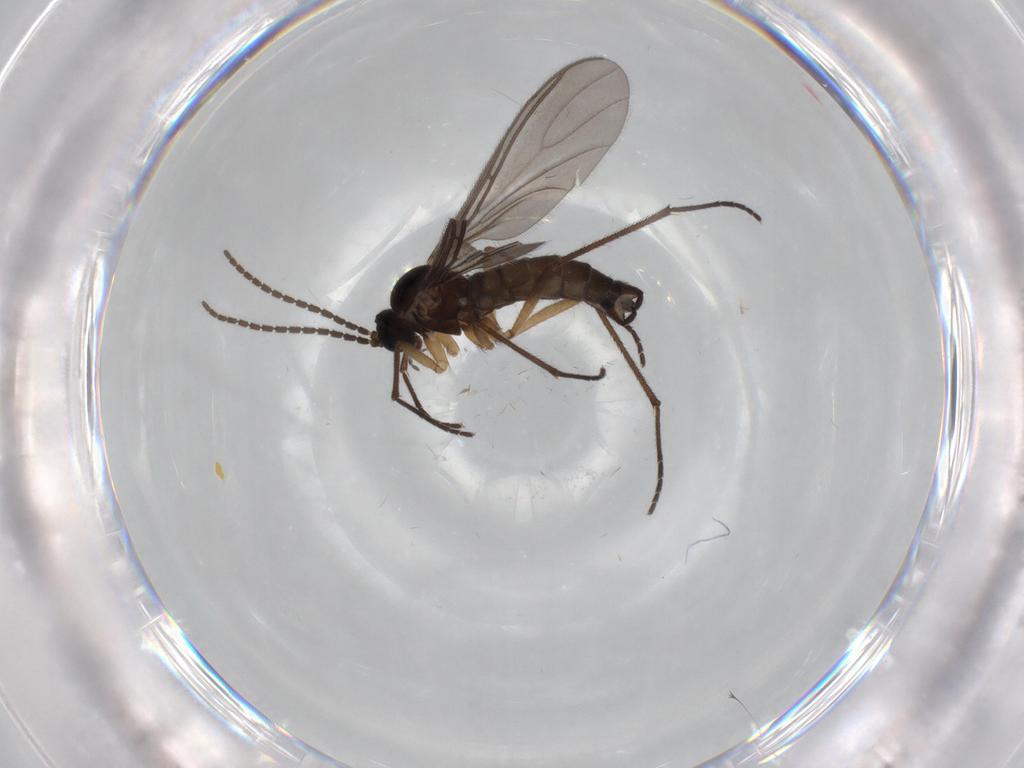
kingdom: Animalia
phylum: Arthropoda
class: Insecta
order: Diptera
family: Sciaridae
